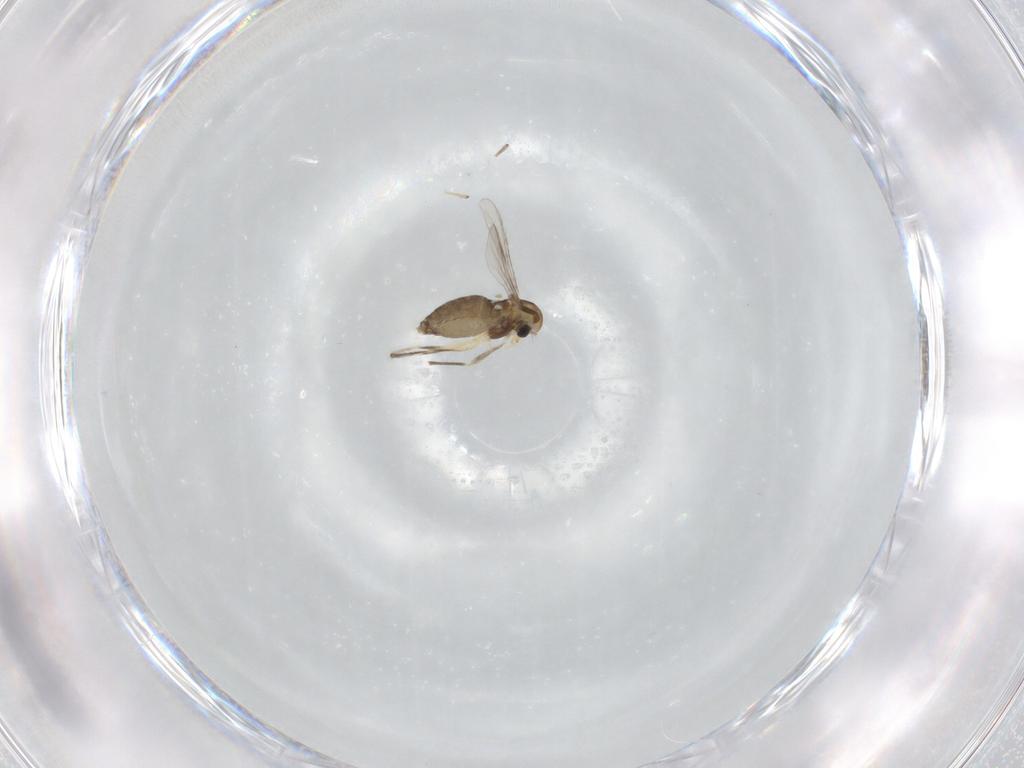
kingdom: Animalia
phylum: Arthropoda
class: Insecta
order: Diptera
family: Chironomidae
